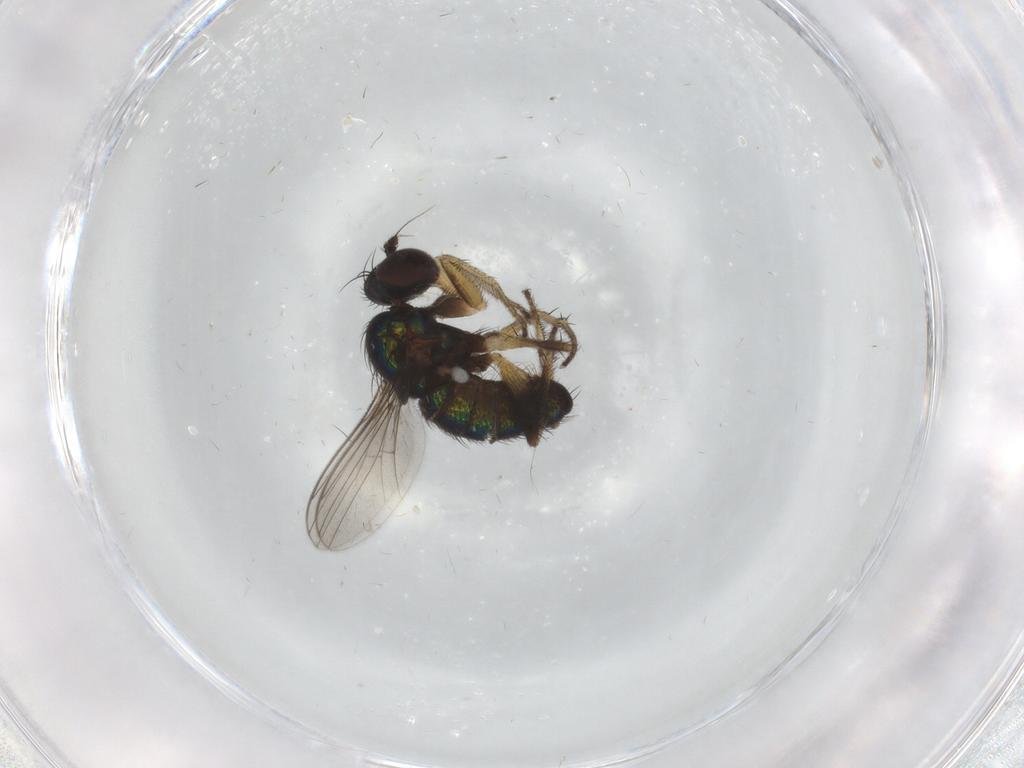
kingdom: Animalia
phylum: Arthropoda
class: Insecta
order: Diptera
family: Dolichopodidae
